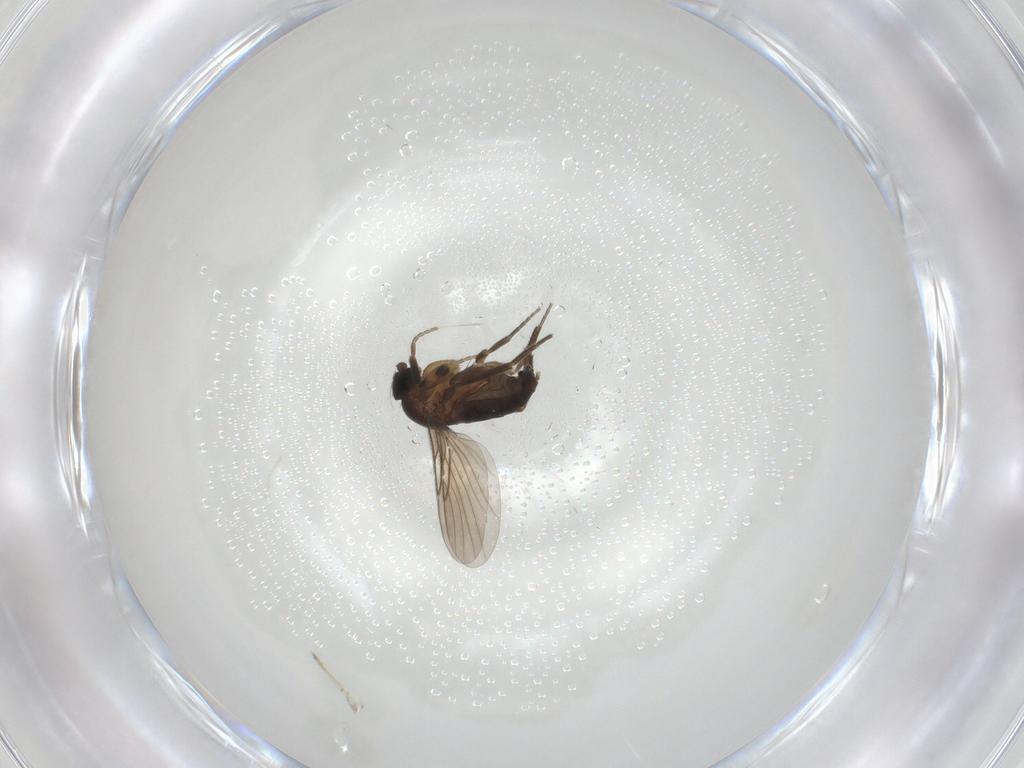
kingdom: Animalia
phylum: Arthropoda
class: Insecta
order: Diptera
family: Phoridae
